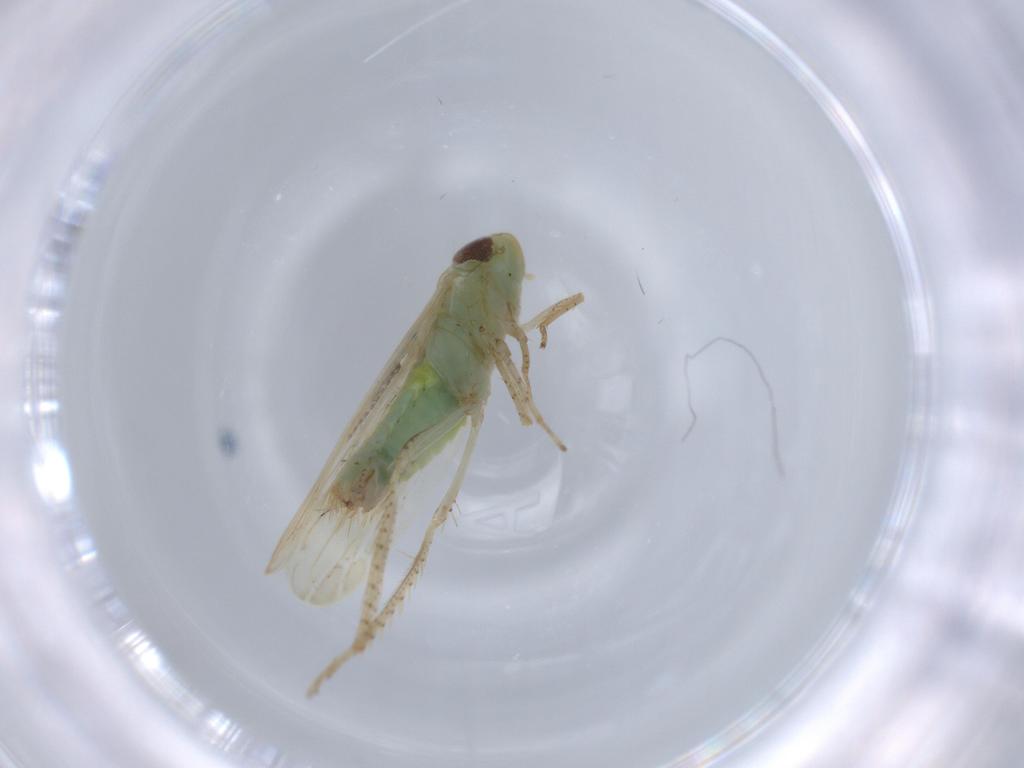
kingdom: Animalia
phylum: Arthropoda
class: Insecta
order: Hemiptera
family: Cicadellidae
